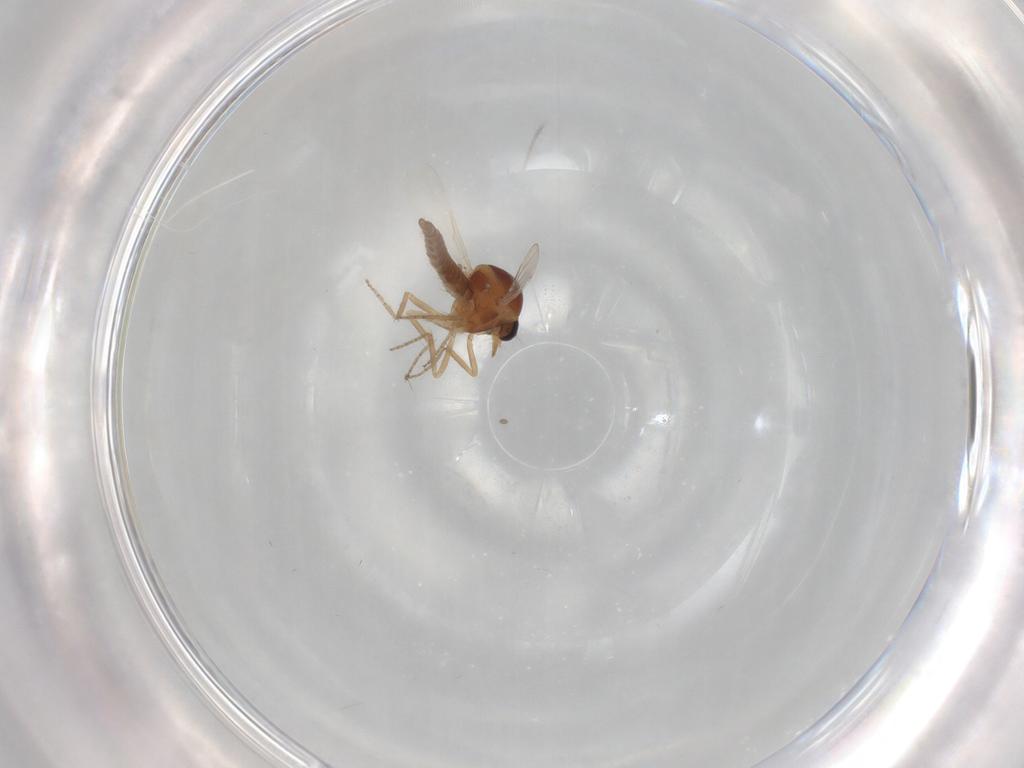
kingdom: Animalia
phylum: Arthropoda
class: Insecta
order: Diptera
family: Ceratopogonidae
